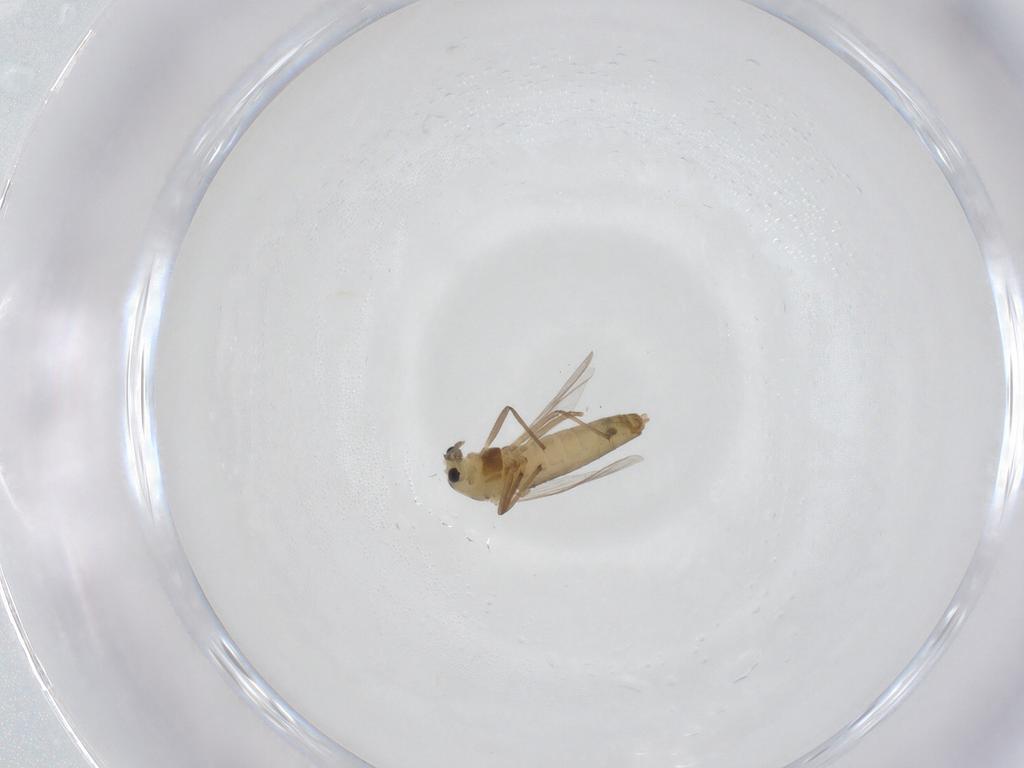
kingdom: Animalia
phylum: Arthropoda
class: Insecta
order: Diptera
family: Chironomidae
